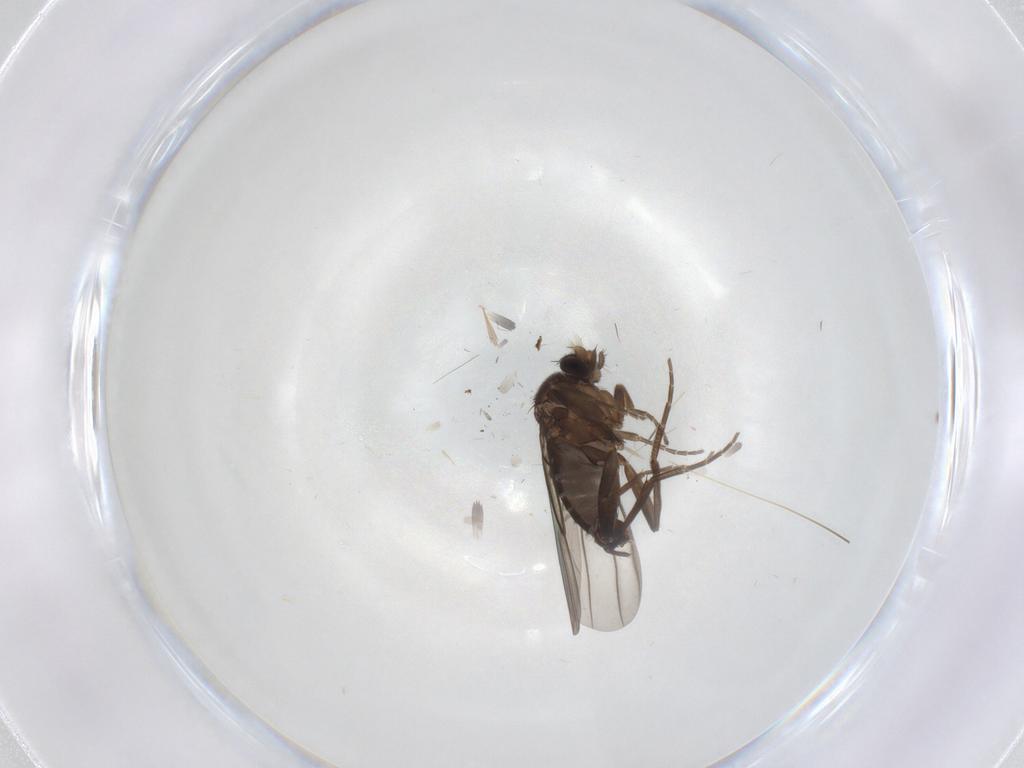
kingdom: Animalia
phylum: Arthropoda
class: Insecta
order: Diptera
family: Cecidomyiidae
